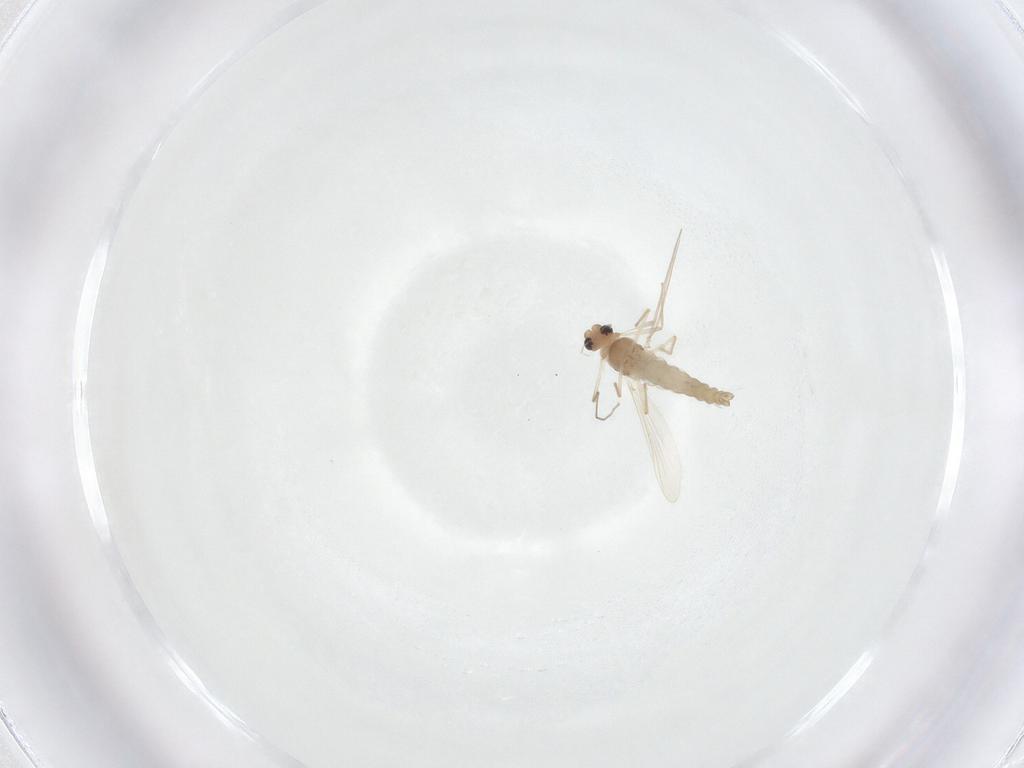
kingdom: Animalia
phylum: Arthropoda
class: Insecta
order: Diptera
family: Chironomidae
